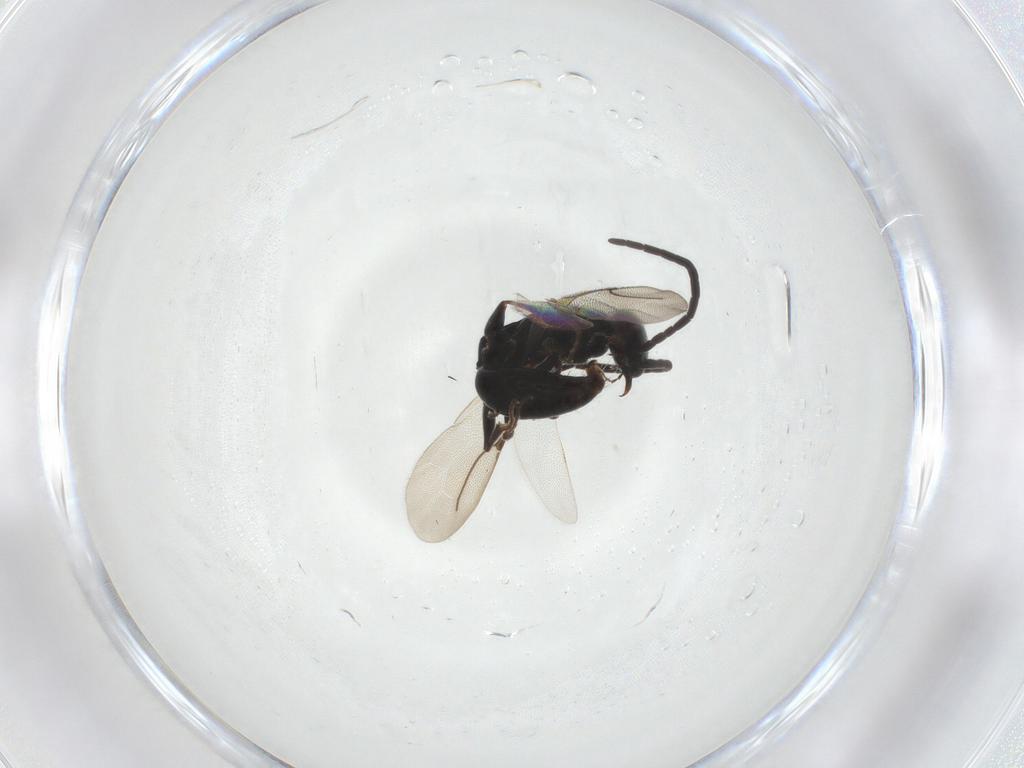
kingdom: Animalia
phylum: Arthropoda
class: Insecta
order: Hymenoptera
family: Bethylidae
